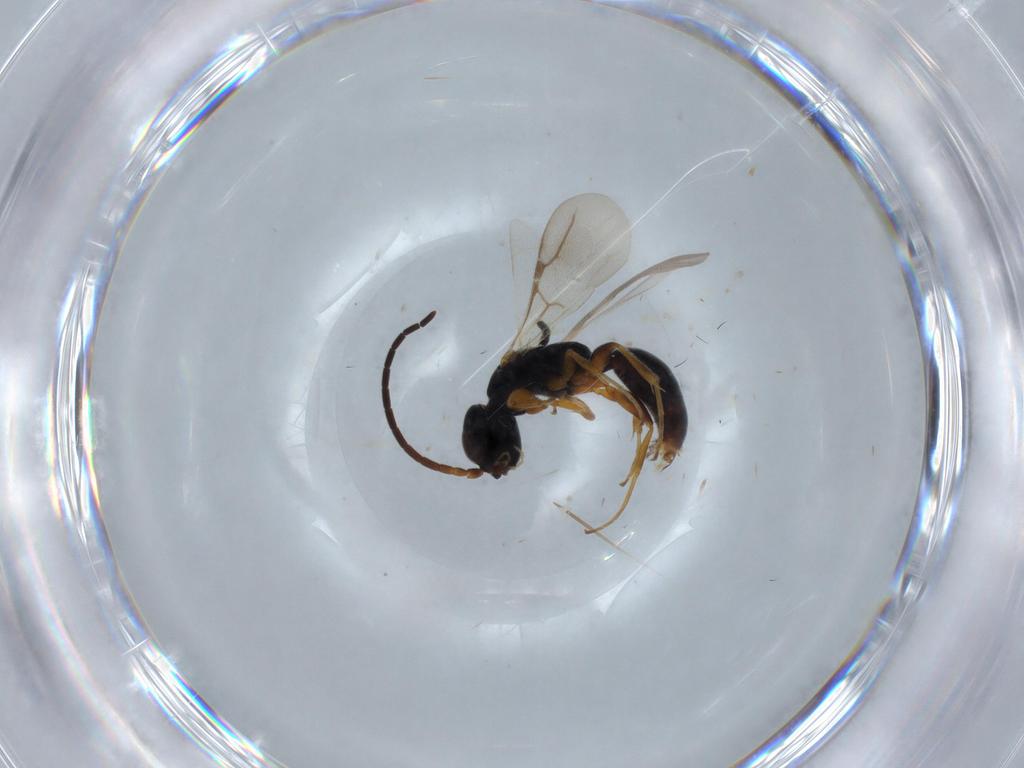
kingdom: Animalia
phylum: Arthropoda
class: Insecta
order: Hymenoptera
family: Bethylidae
